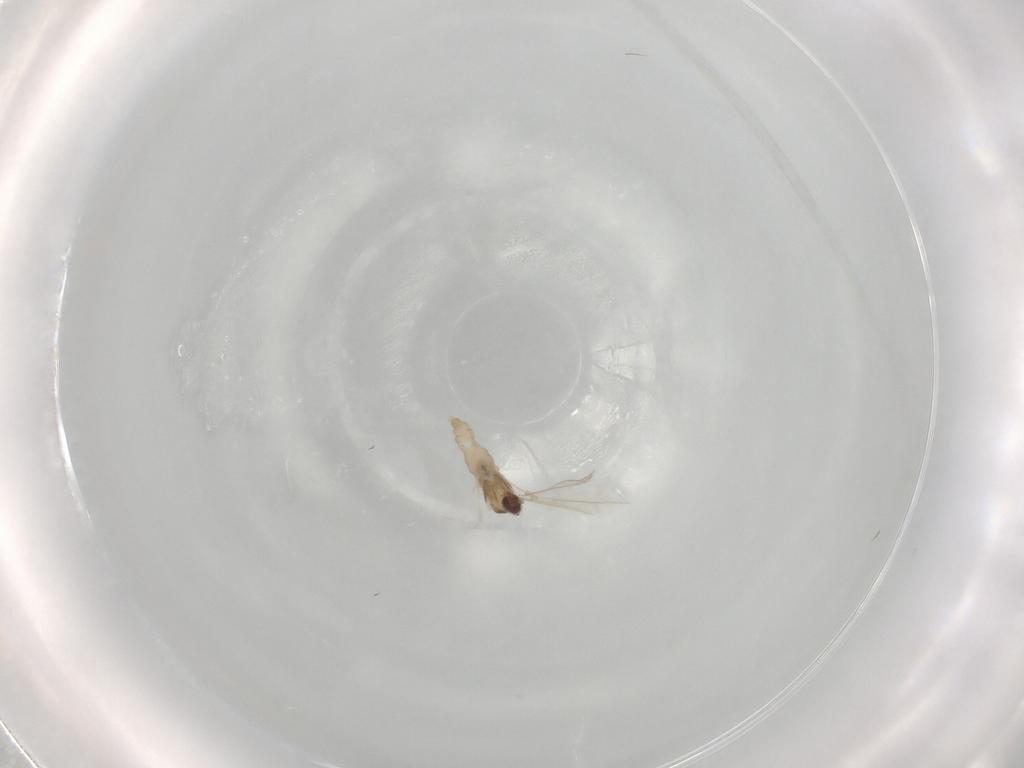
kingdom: Animalia
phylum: Arthropoda
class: Insecta
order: Diptera
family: Cecidomyiidae
